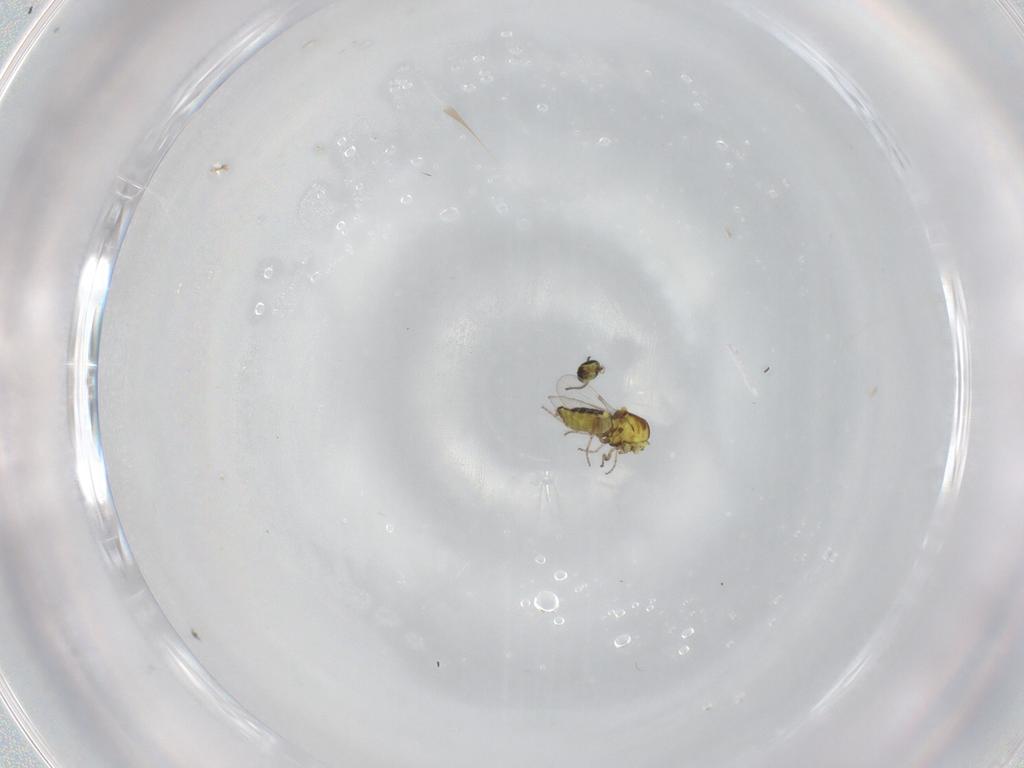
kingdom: Animalia
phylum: Arthropoda
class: Insecta
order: Diptera
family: Ceratopogonidae
